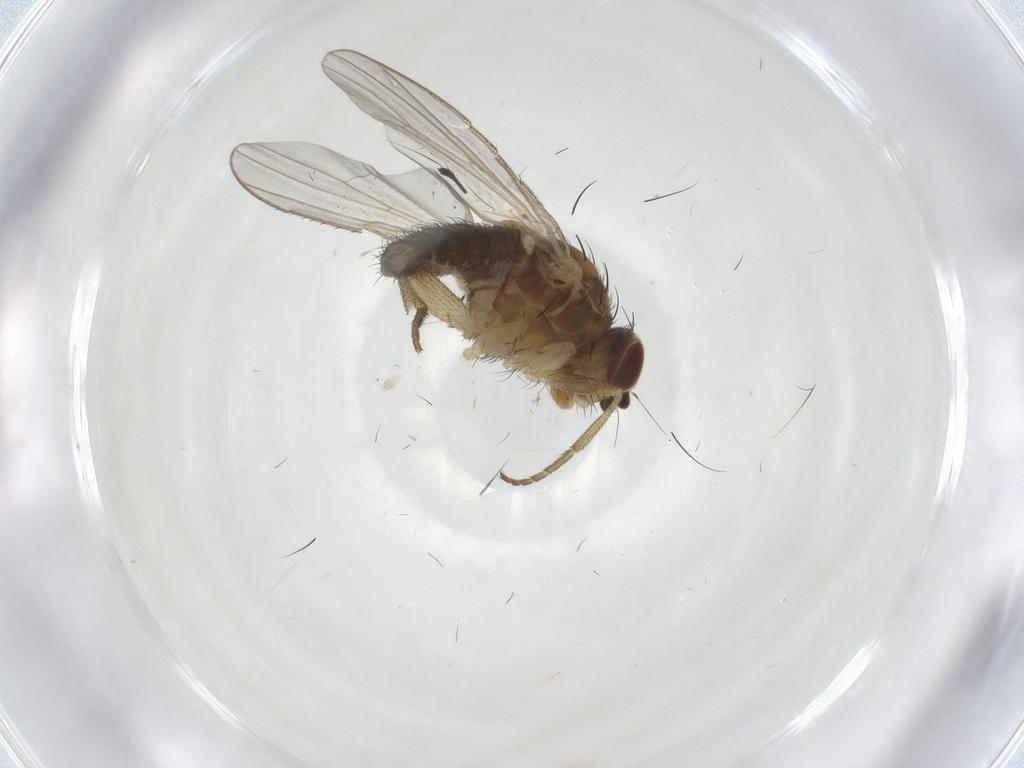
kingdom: Animalia
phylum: Arthropoda
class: Insecta
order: Diptera
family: Heleomyzidae
